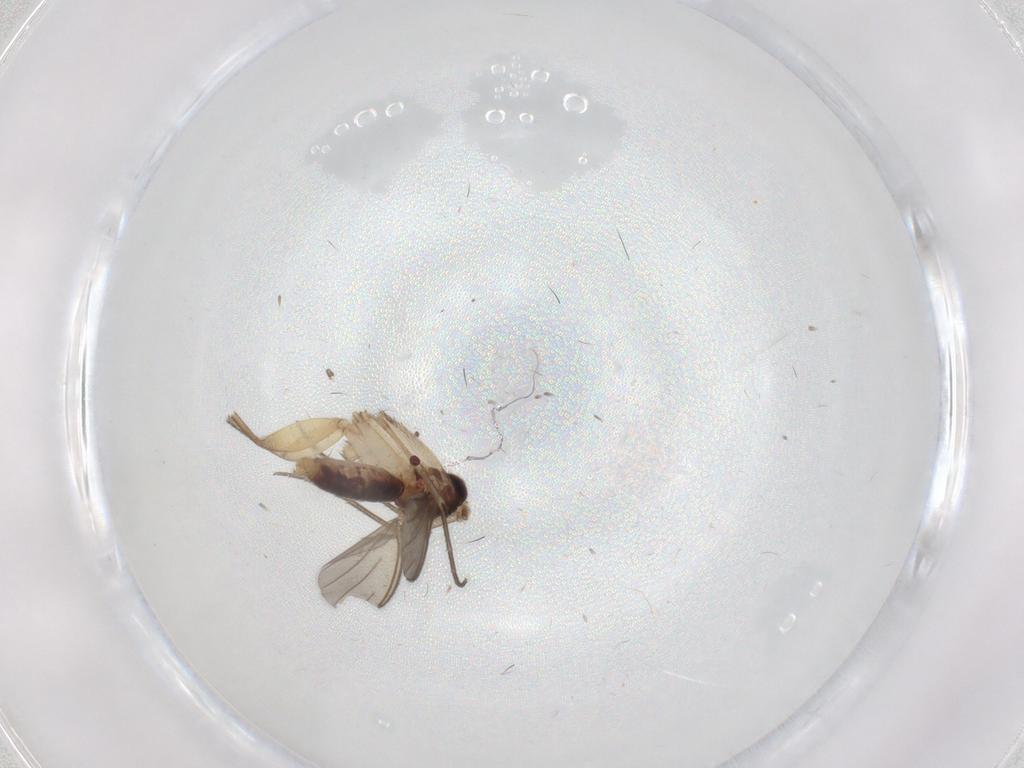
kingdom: Animalia
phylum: Arthropoda
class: Insecta
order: Diptera
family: Mycetophilidae
